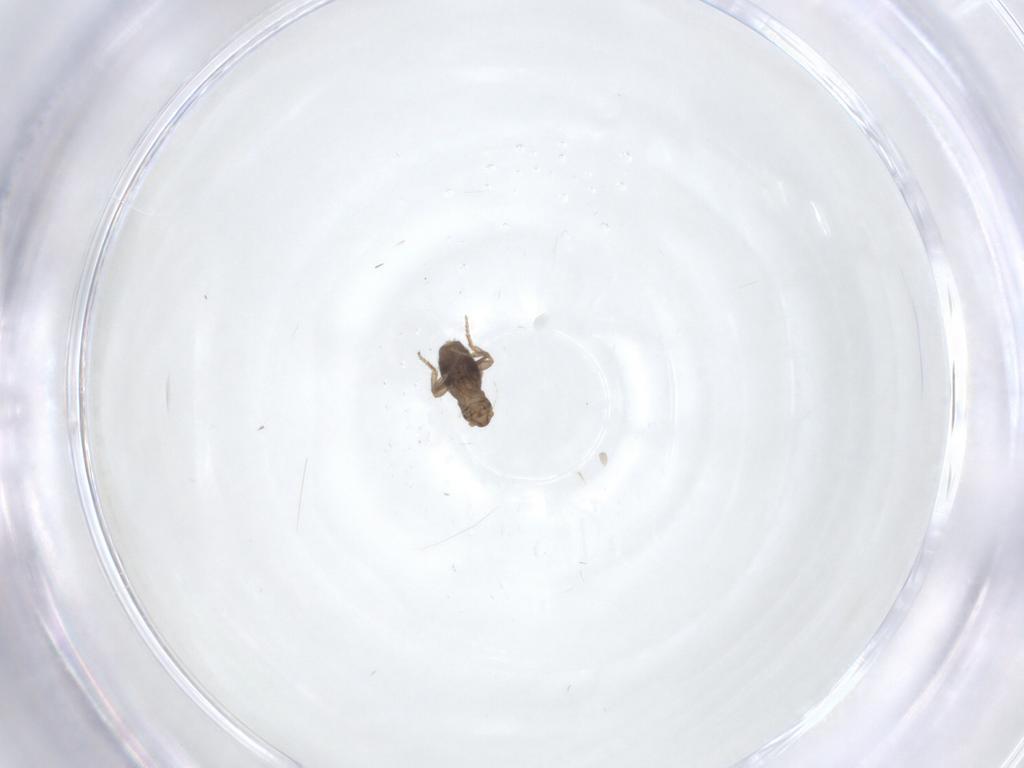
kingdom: Animalia
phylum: Arthropoda
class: Insecta
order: Diptera
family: Psychodidae
